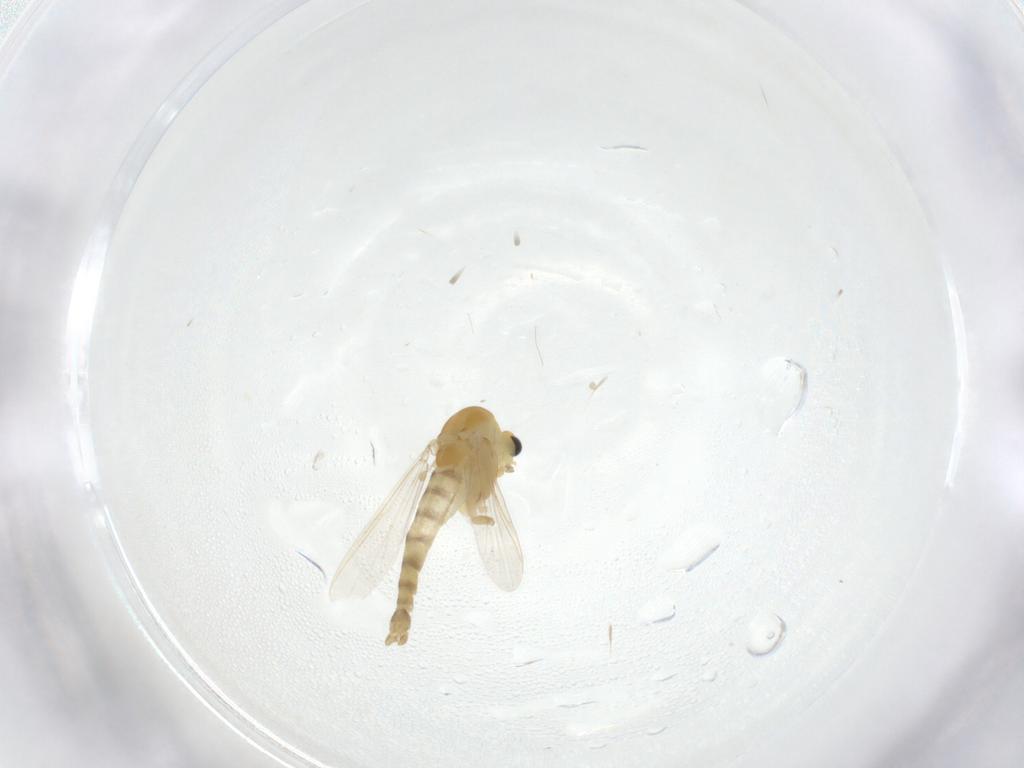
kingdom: Animalia
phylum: Arthropoda
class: Insecta
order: Diptera
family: Chironomidae
